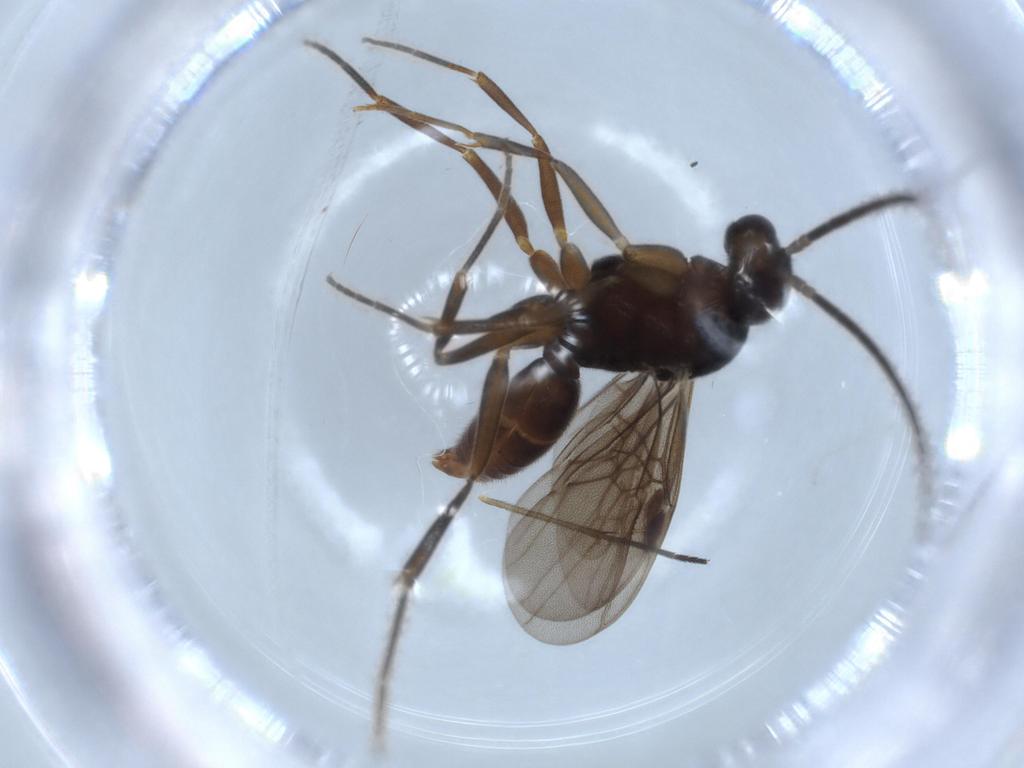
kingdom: Animalia
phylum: Arthropoda
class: Insecta
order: Hymenoptera
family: Formicidae
